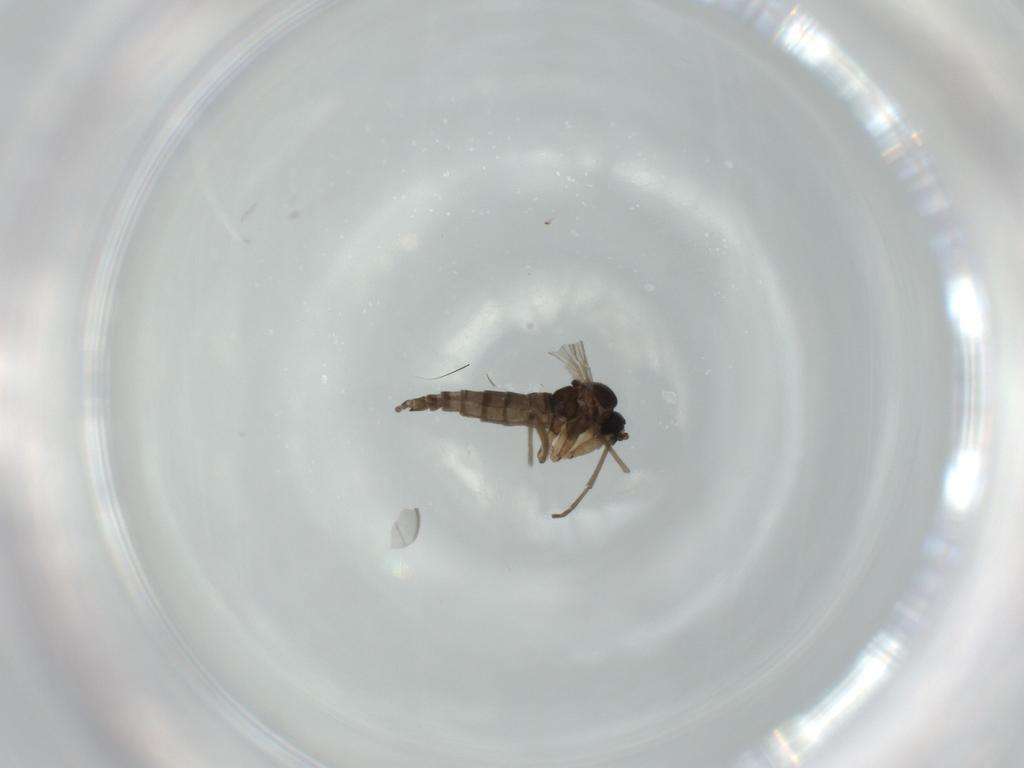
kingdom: Animalia
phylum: Arthropoda
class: Insecta
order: Diptera
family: Sciaridae
